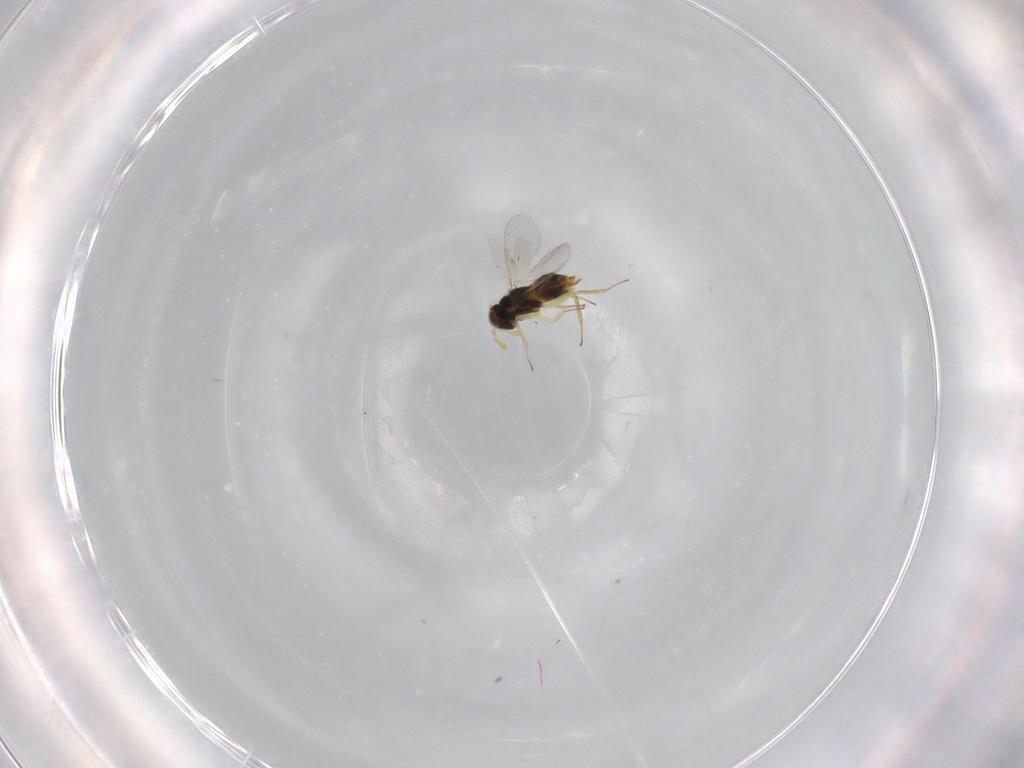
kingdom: Animalia
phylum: Arthropoda
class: Insecta
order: Hymenoptera
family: Aphelinidae
